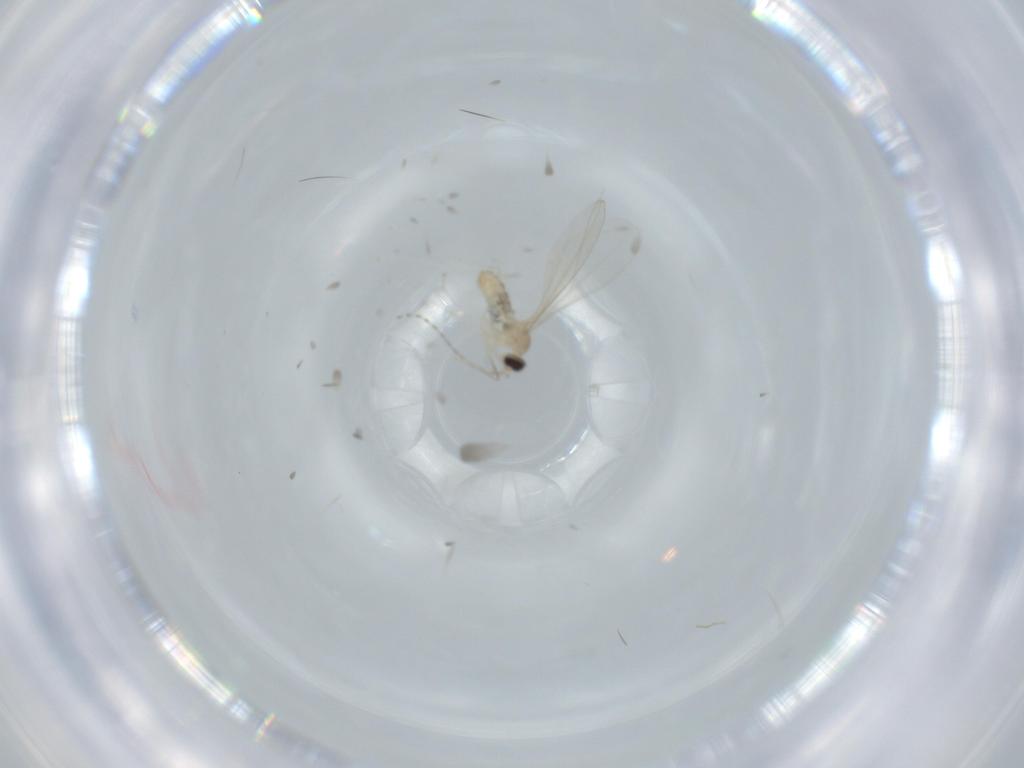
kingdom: Animalia
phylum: Arthropoda
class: Insecta
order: Diptera
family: Cecidomyiidae
